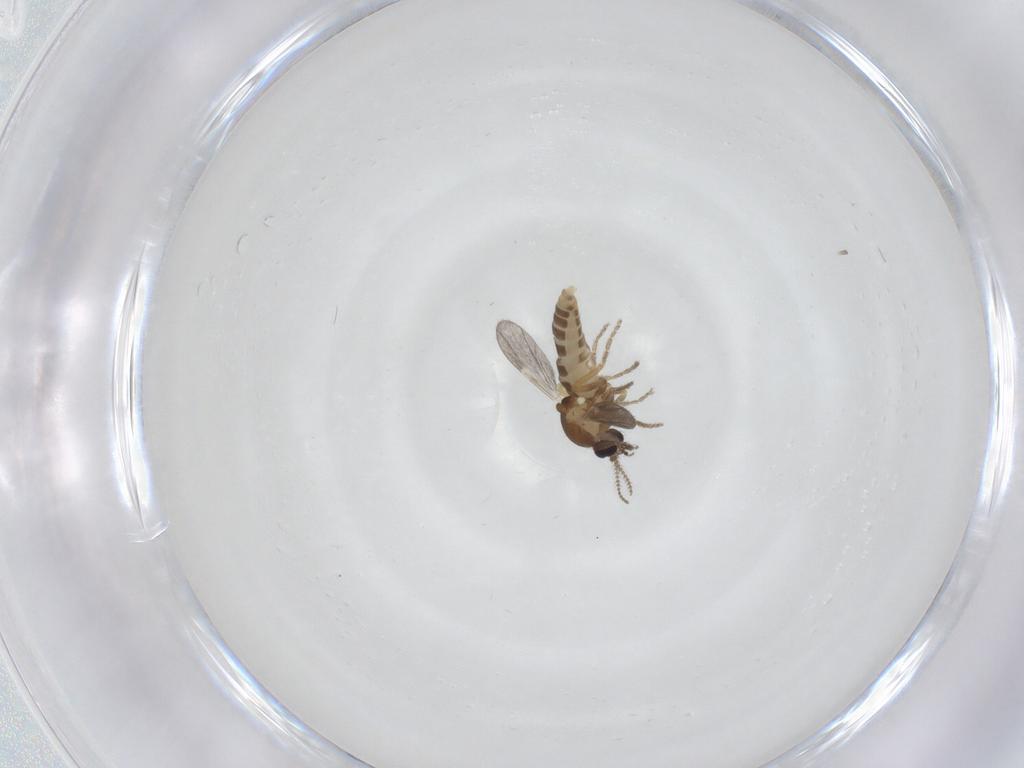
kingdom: Animalia
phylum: Arthropoda
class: Insecta
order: Diptera
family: Ceratopogonidae
